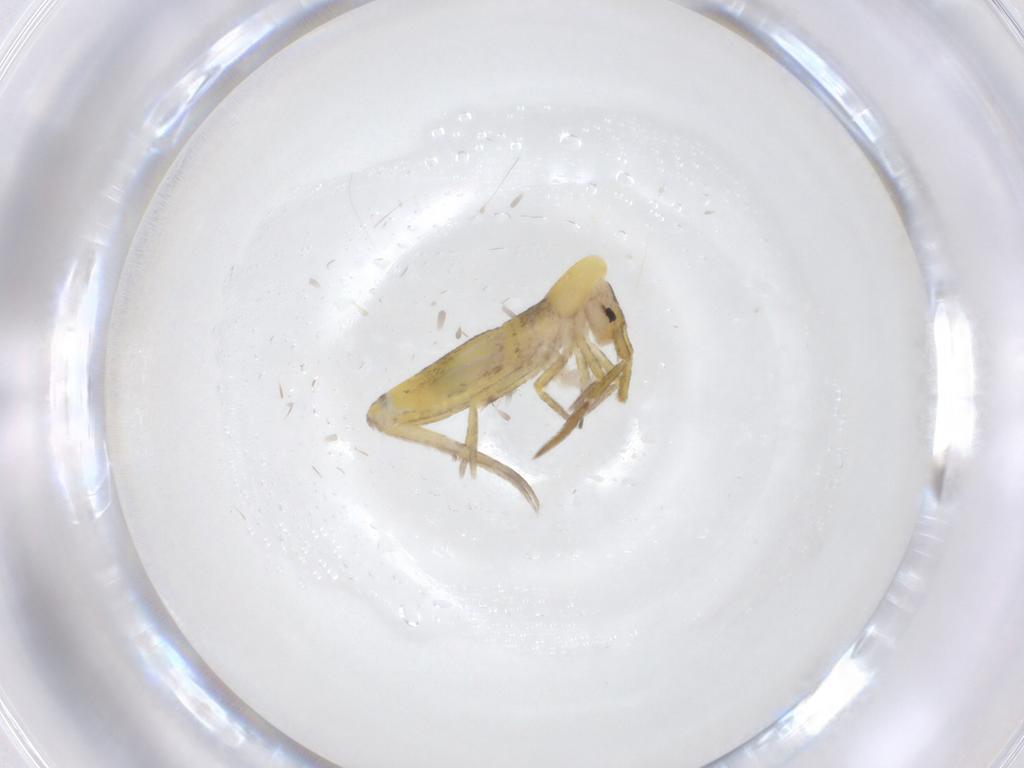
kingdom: Animalia
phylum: Arthropoda
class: Collembola
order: Entomobryomorpha
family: Entomobryidae
